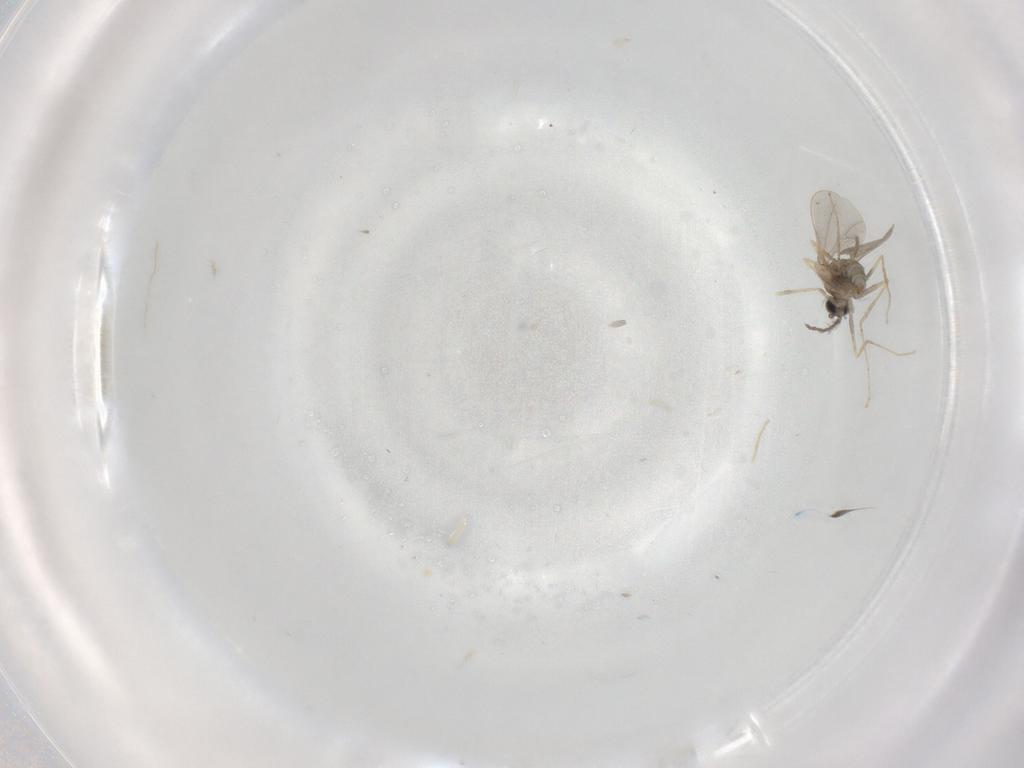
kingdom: Animalia
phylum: Arthropoda
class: Insecta
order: Diptera
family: Cecidomyiidae
